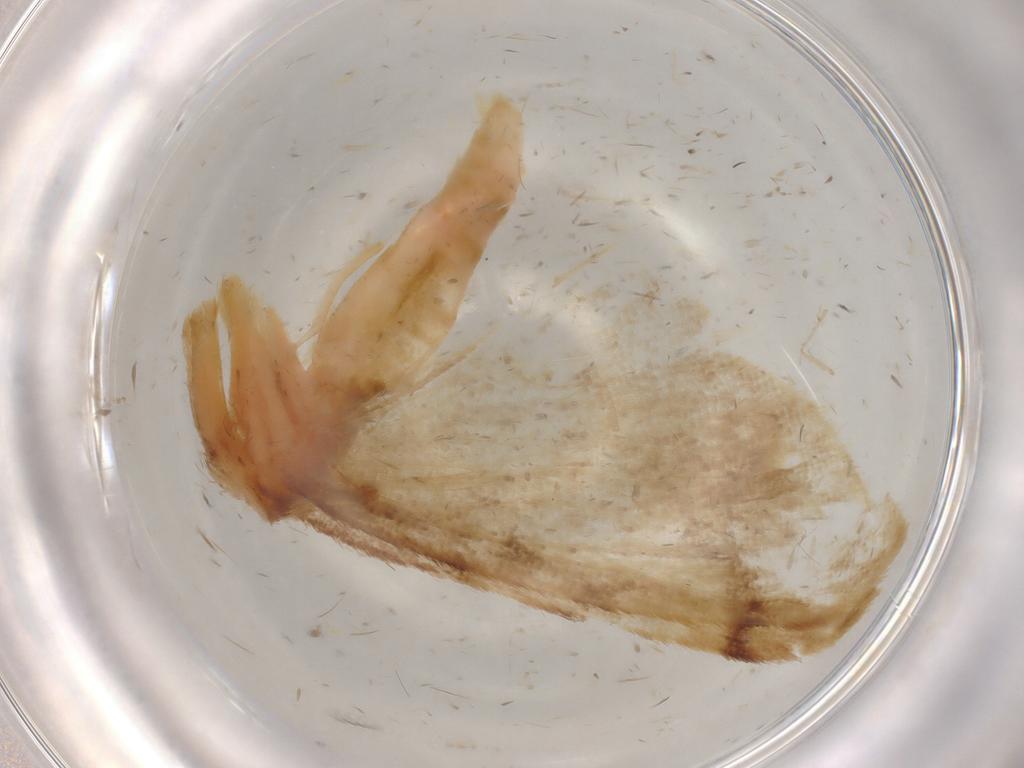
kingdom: Animalia
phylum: Arthropoda
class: Insecta
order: Lepidoptera
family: Geometridae
